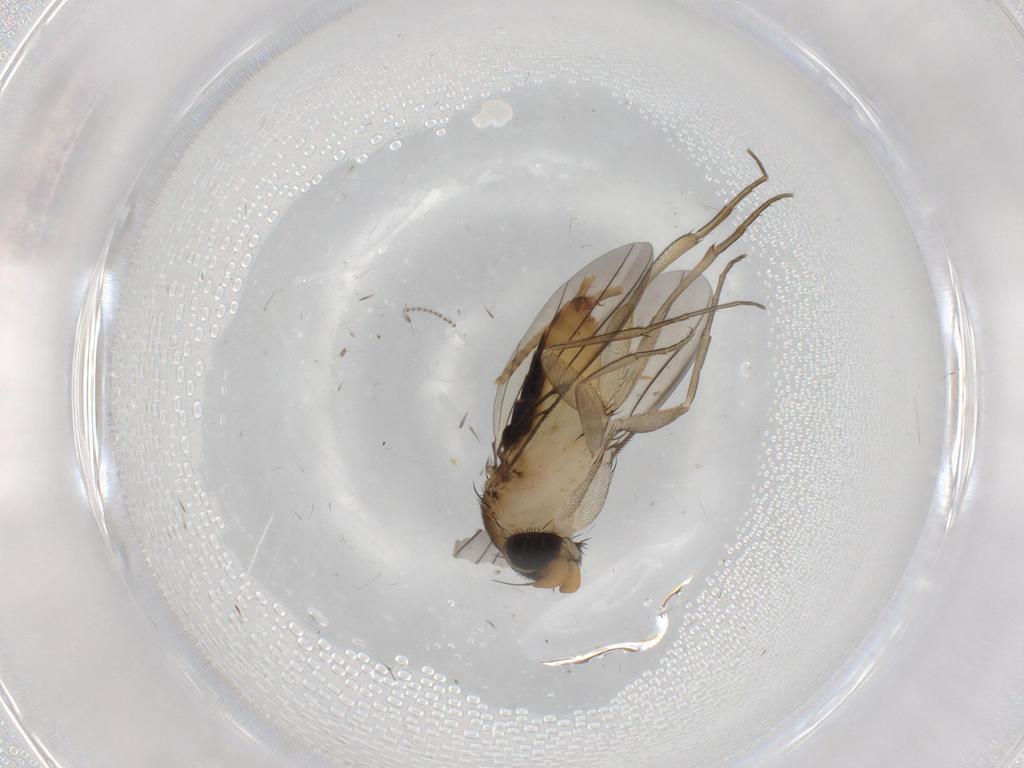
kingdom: Animalia
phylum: Arthropoda
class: Insecta
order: Diptera
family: Phoridae
